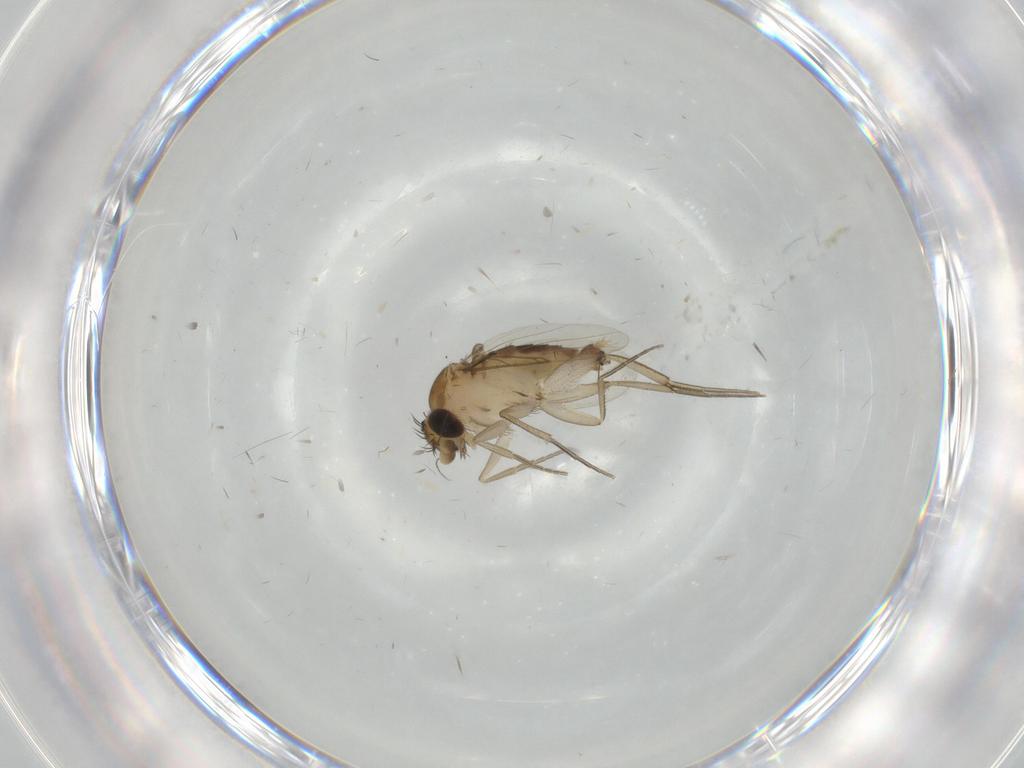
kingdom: Animalia
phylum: Arthropoda
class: Insecta
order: Diptera
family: Phoridae
